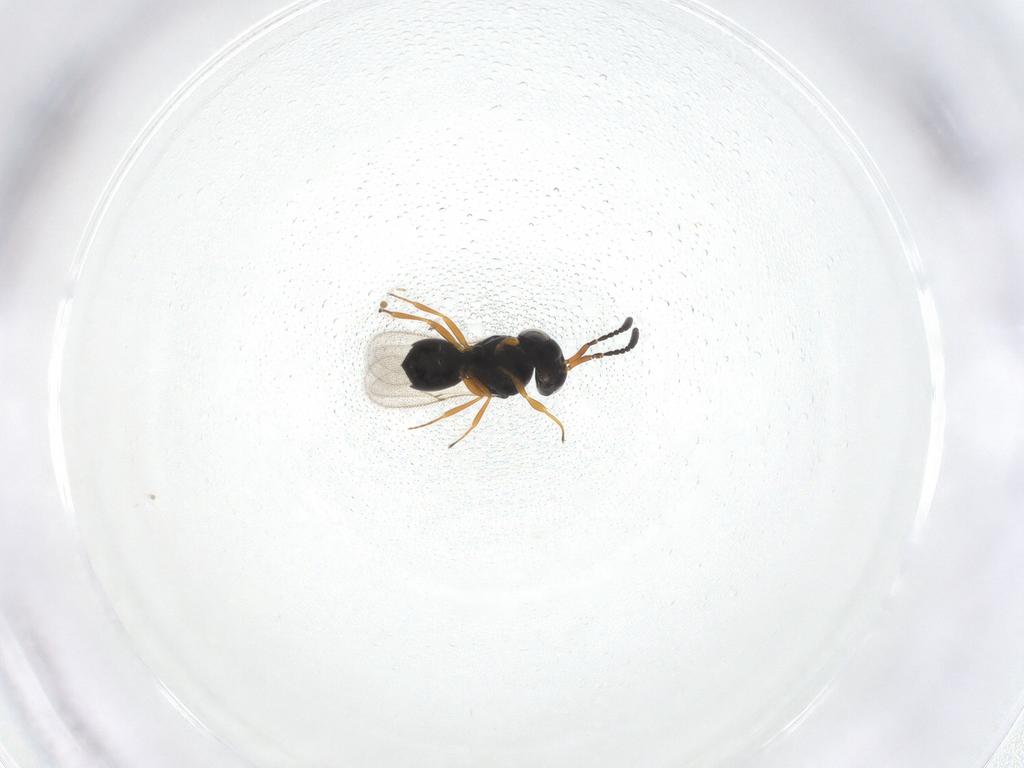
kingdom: Animalia
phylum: Arthropoda
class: Insecta
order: Hymenoptera
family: Scelionidae
